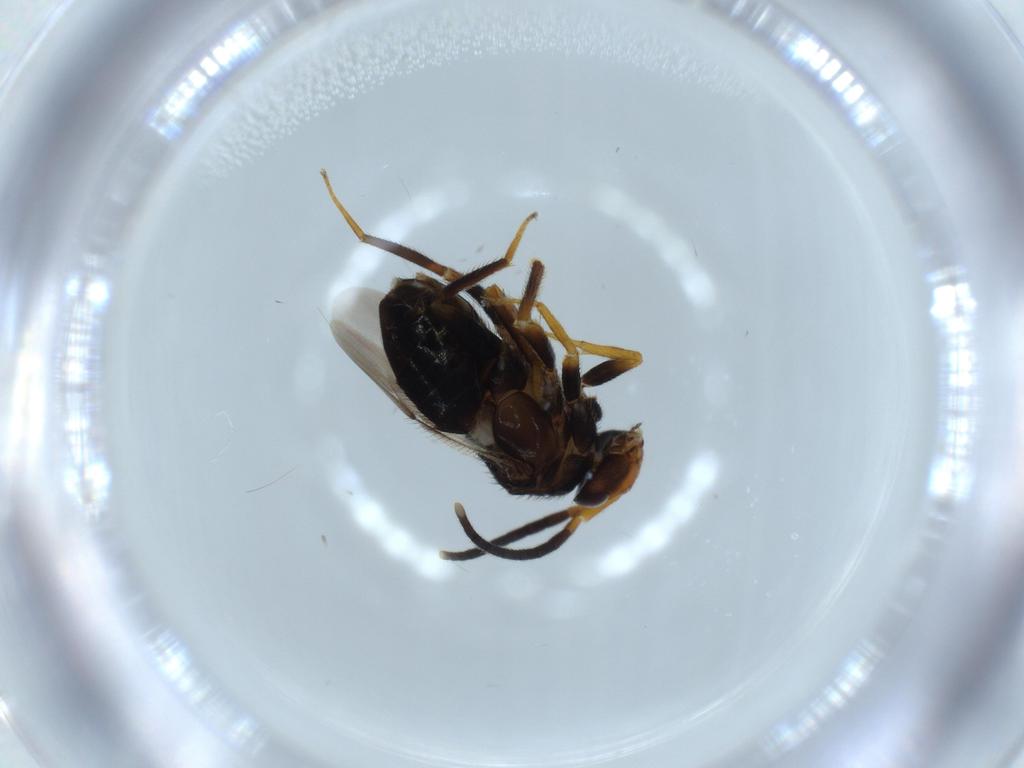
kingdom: Animalia
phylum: Arthropoda
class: Insecta
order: Hymenoptera
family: Encyrtidae
